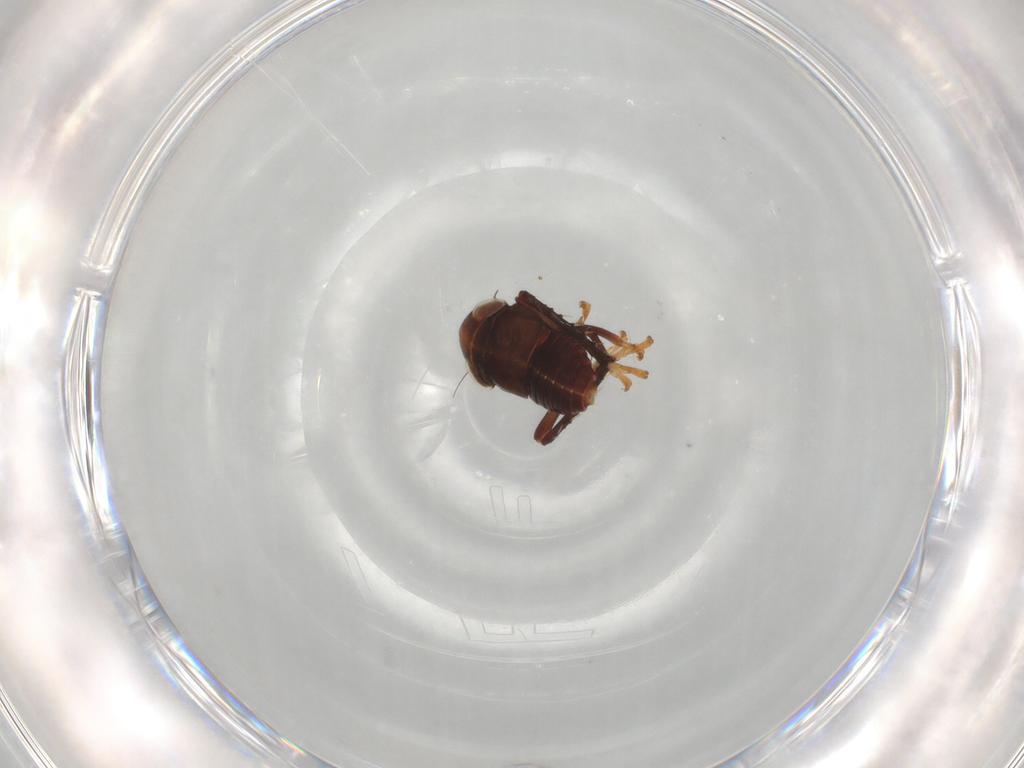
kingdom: Animalia
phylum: Arthropoda
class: Insecta
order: Hemiptera
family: Cicadellidae
